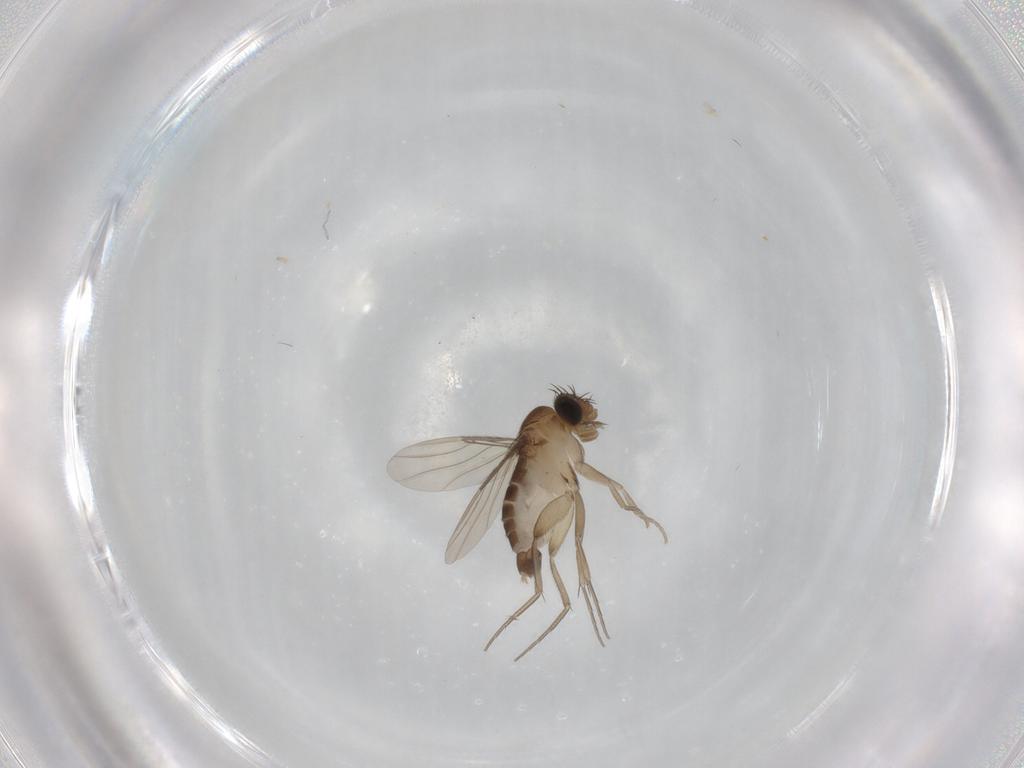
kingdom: Animalia
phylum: Arthropoda
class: Insecta
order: Diptera
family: Phoridae
